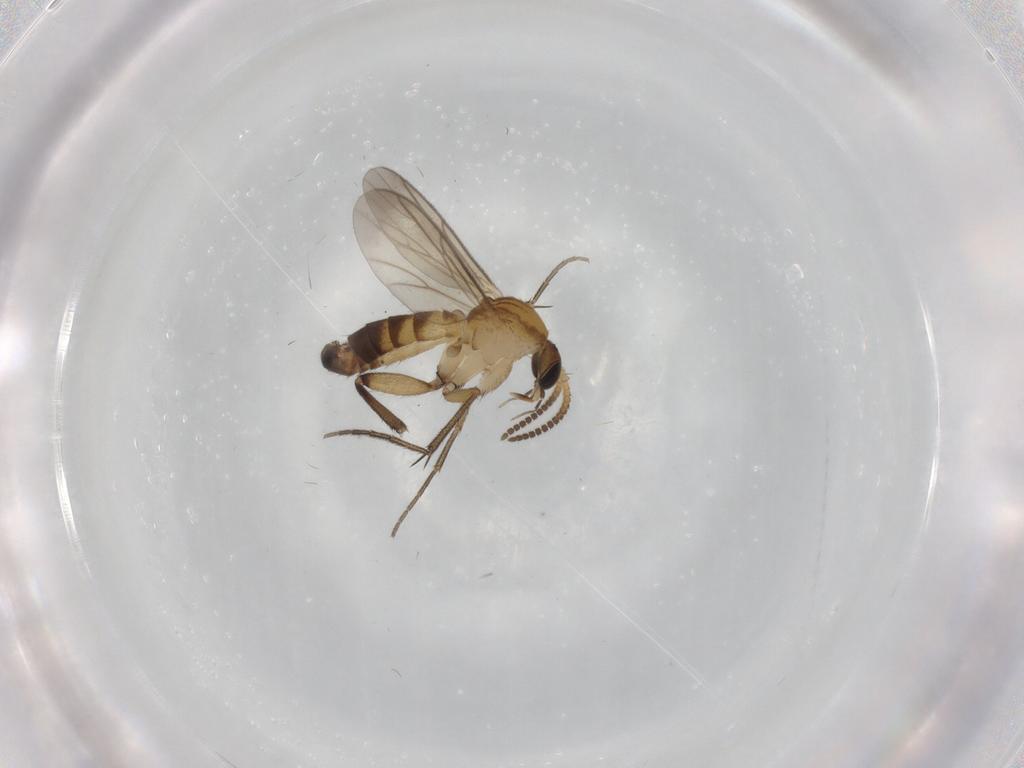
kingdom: Animalia
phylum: Arthropoda
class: Insecta
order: Diptera
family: Mycetophilidae
